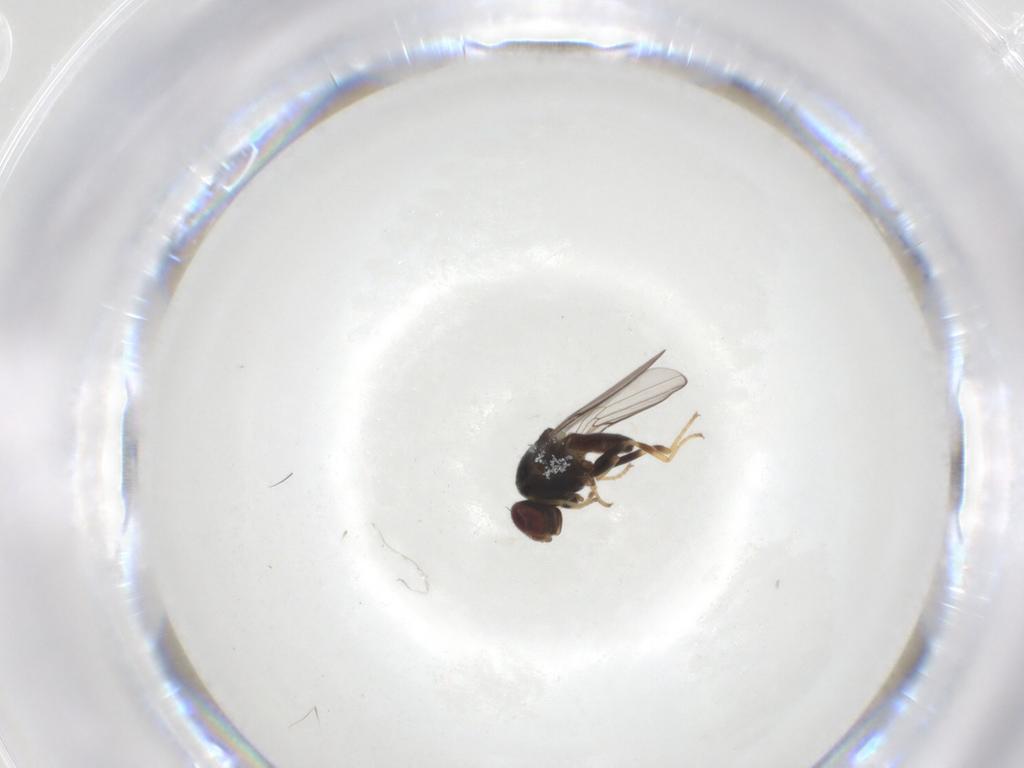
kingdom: Animalia
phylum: Arthropoda
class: Insecta
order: Diptera
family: Chloropidae
